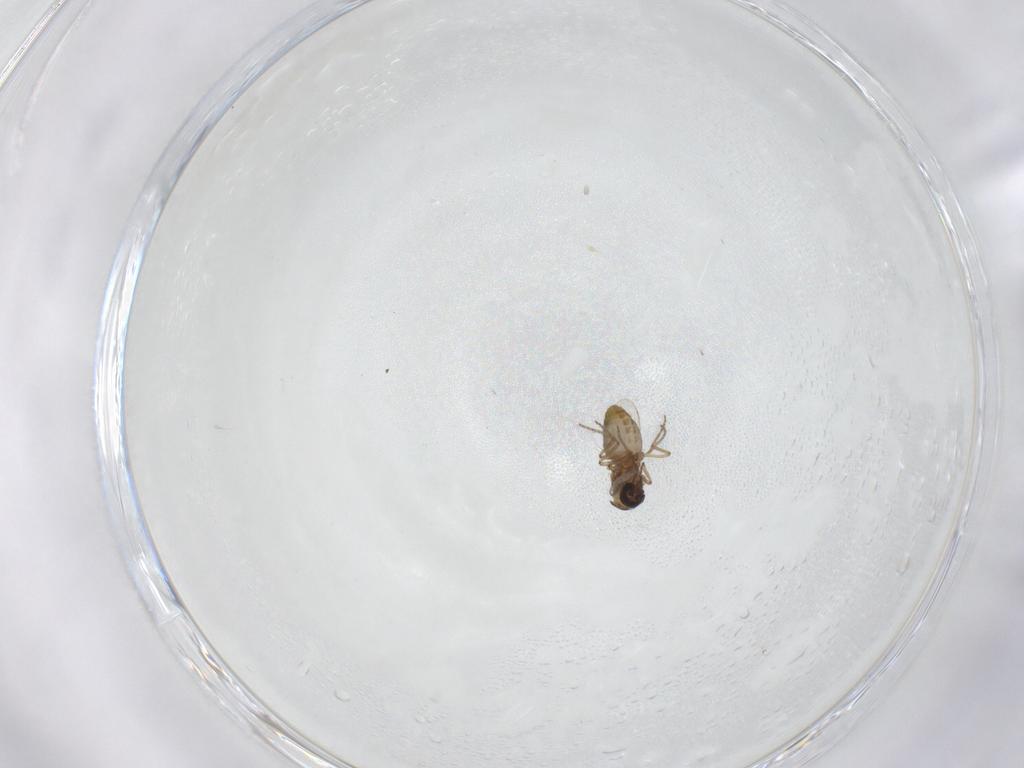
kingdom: Animalia
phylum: Arthropoda
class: Insecta
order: Diptera
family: Ceratopogonidae
